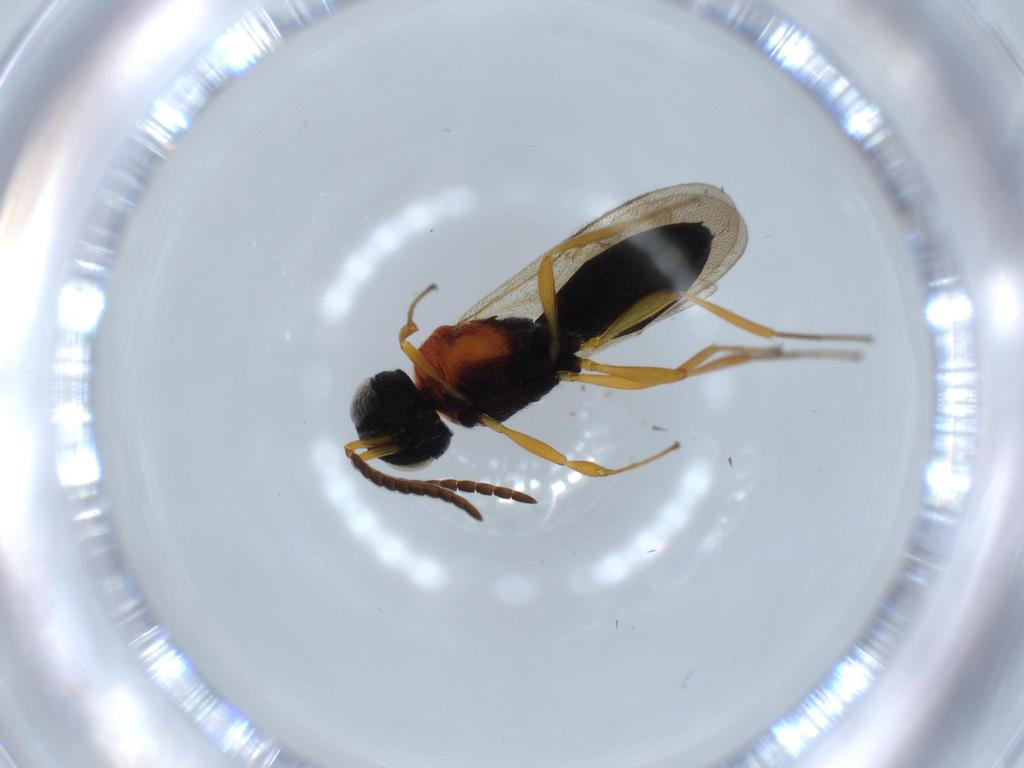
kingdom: Animalia
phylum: Arthropoda
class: Insecta
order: Hymenoptera
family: Scelionidae
